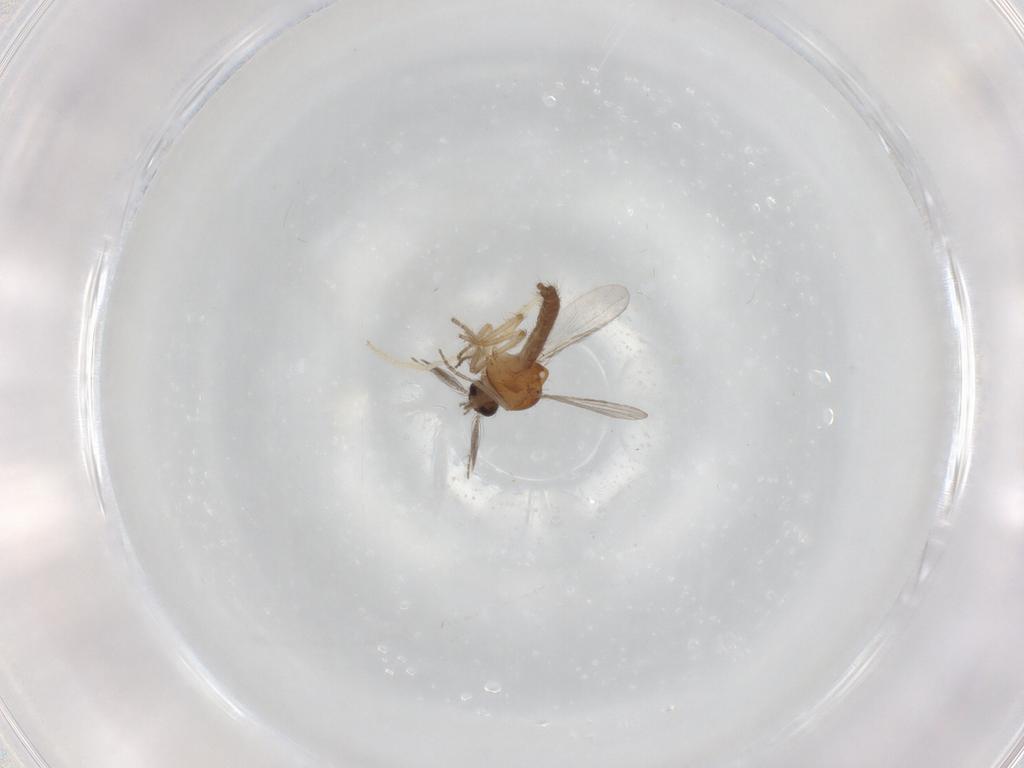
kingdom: Animalia
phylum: Arthropoda
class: Insecta
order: Diptera
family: Ceratopogonidae
